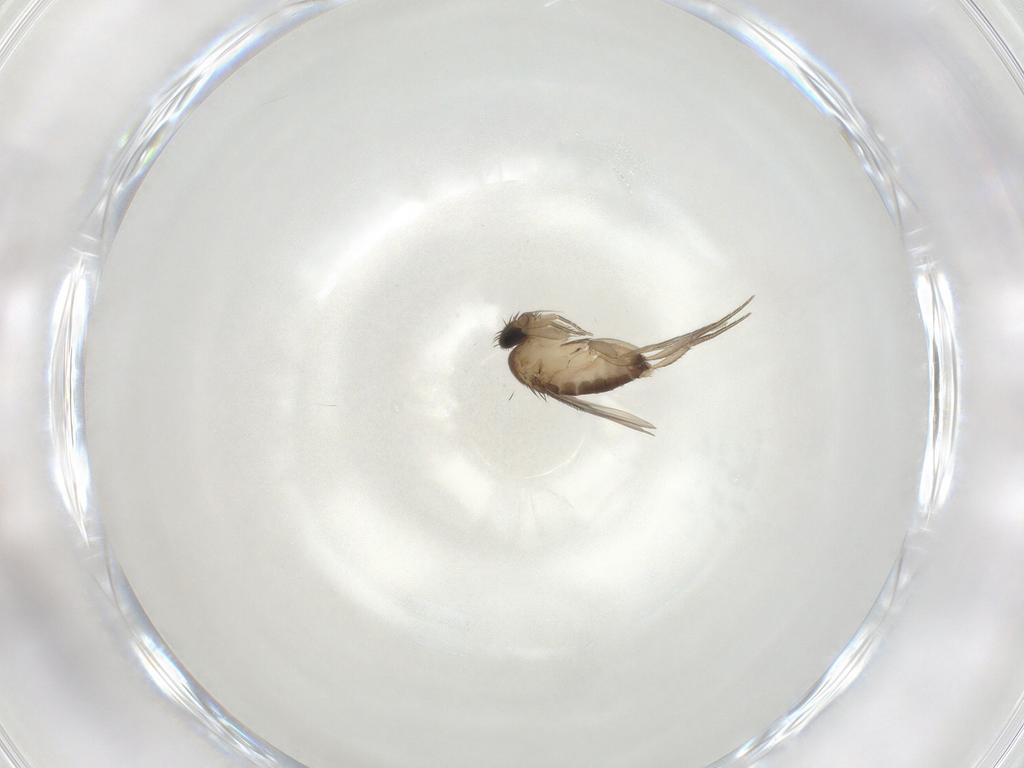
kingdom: Animalia
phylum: Arthropoda
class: Insecta
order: Diptera
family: Phoridae
